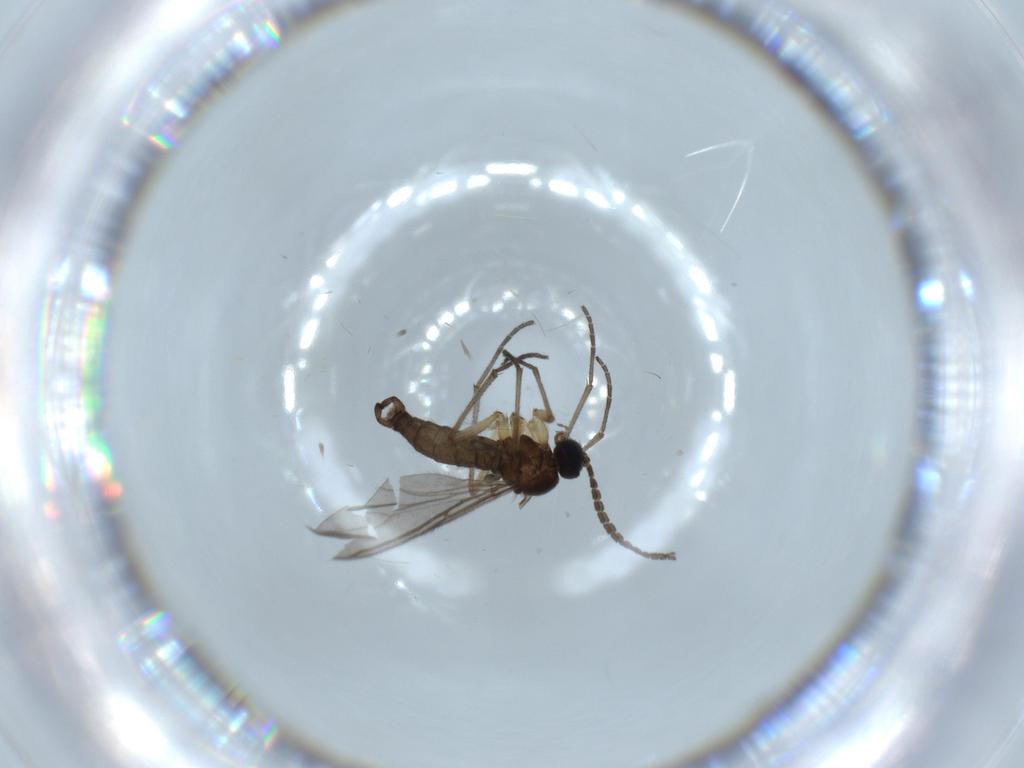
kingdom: Animalia
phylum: Arthropoda
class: Insecta
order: Diptera
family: Sciaridae
